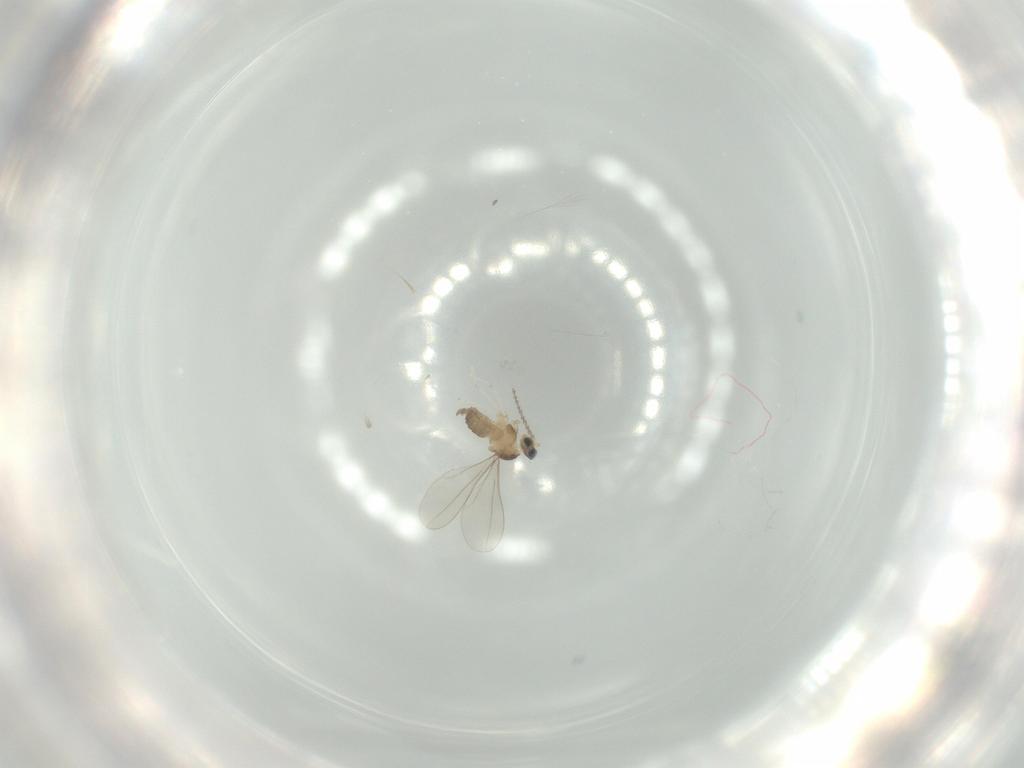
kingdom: Animalia
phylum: Arthropoda
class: Insecta
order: Diptera
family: Cecidomyiidae
